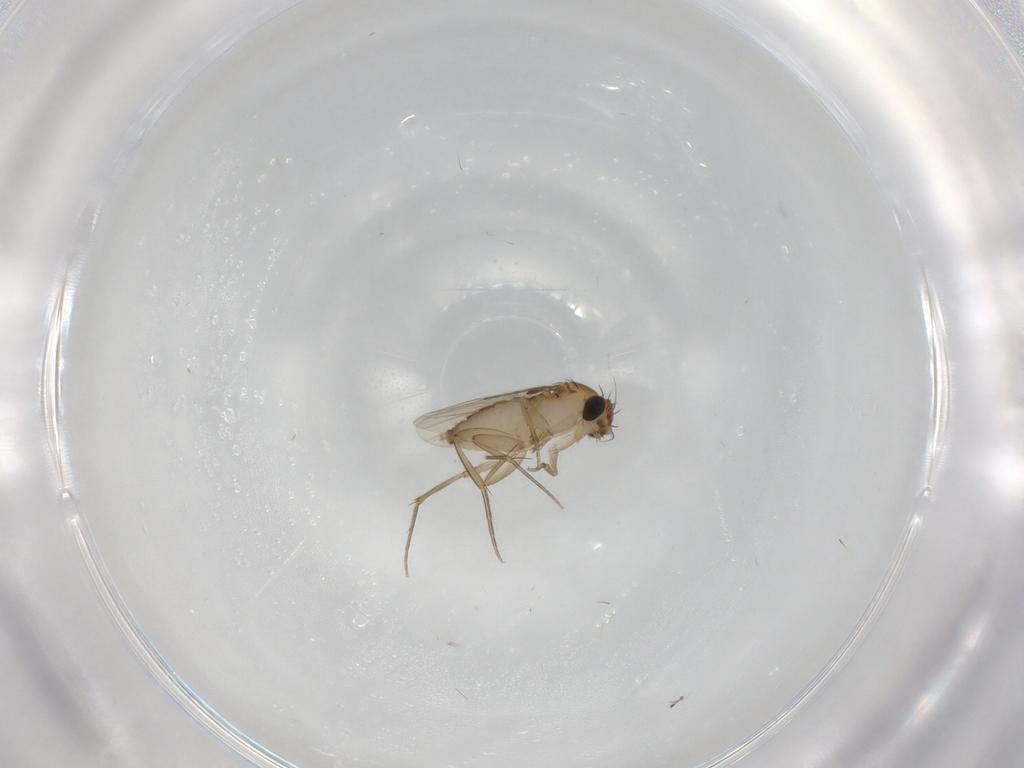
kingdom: Animalia
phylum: Arthropoda
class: Insecta
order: Diptera
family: Phoridae
